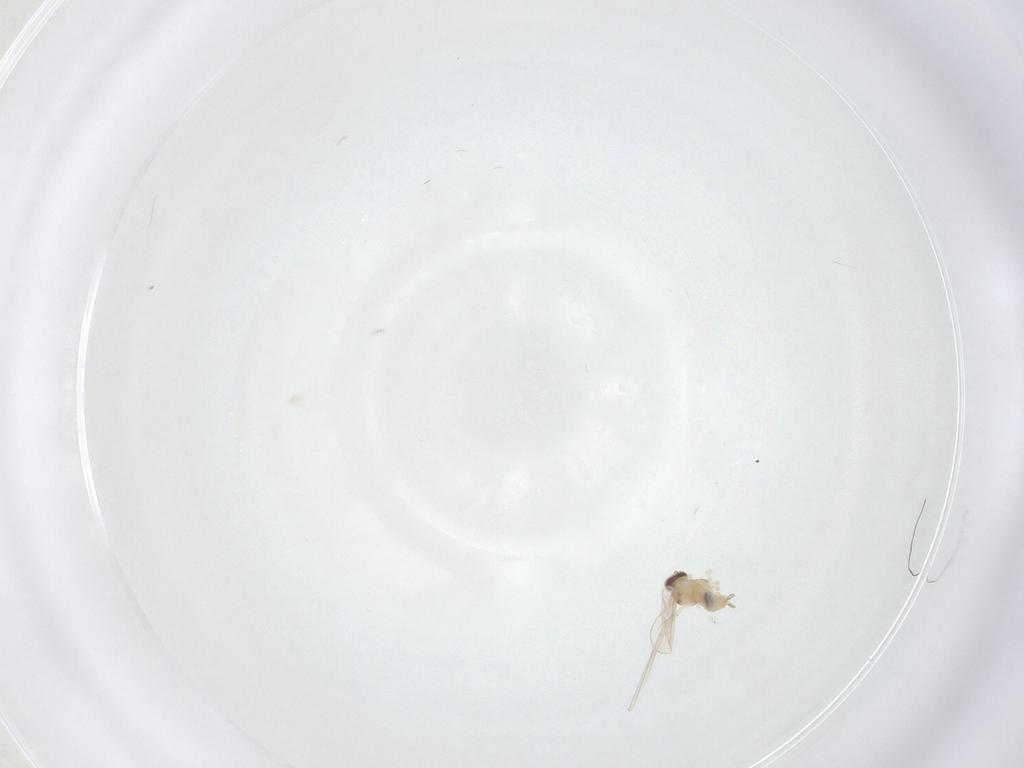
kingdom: Animalia
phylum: Arthropoda
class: Insecta
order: Diptera
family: Cecidomyiidae
